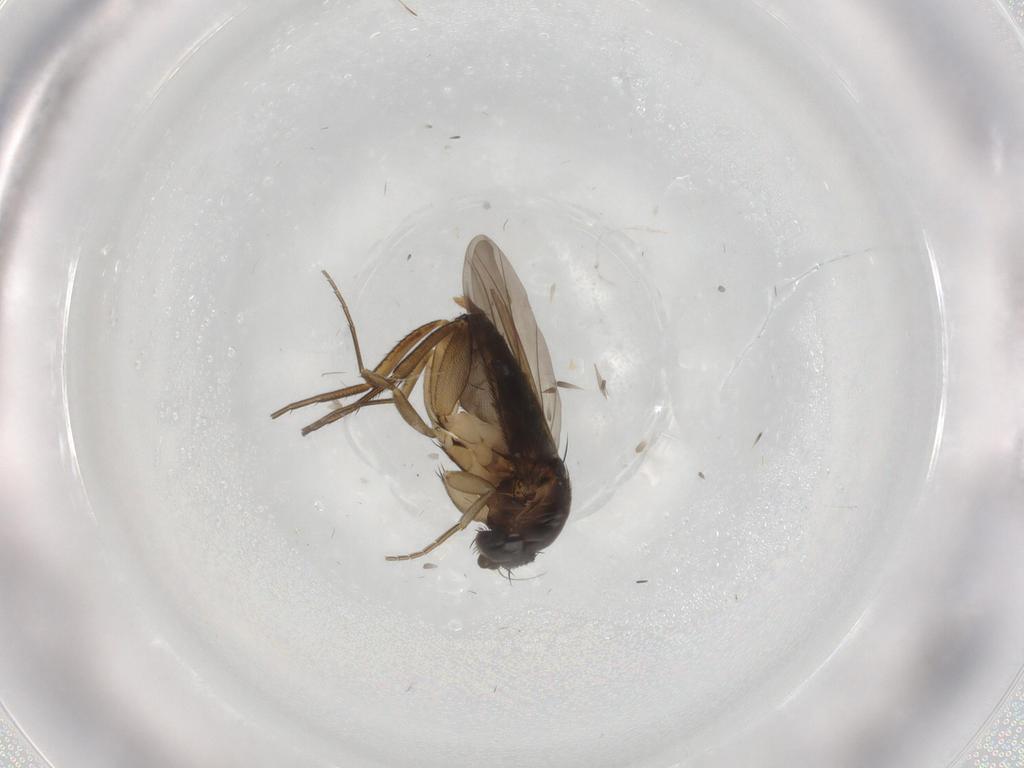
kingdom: Animalia
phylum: Arthropoda
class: Insecta
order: Diptera
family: Phoridae
